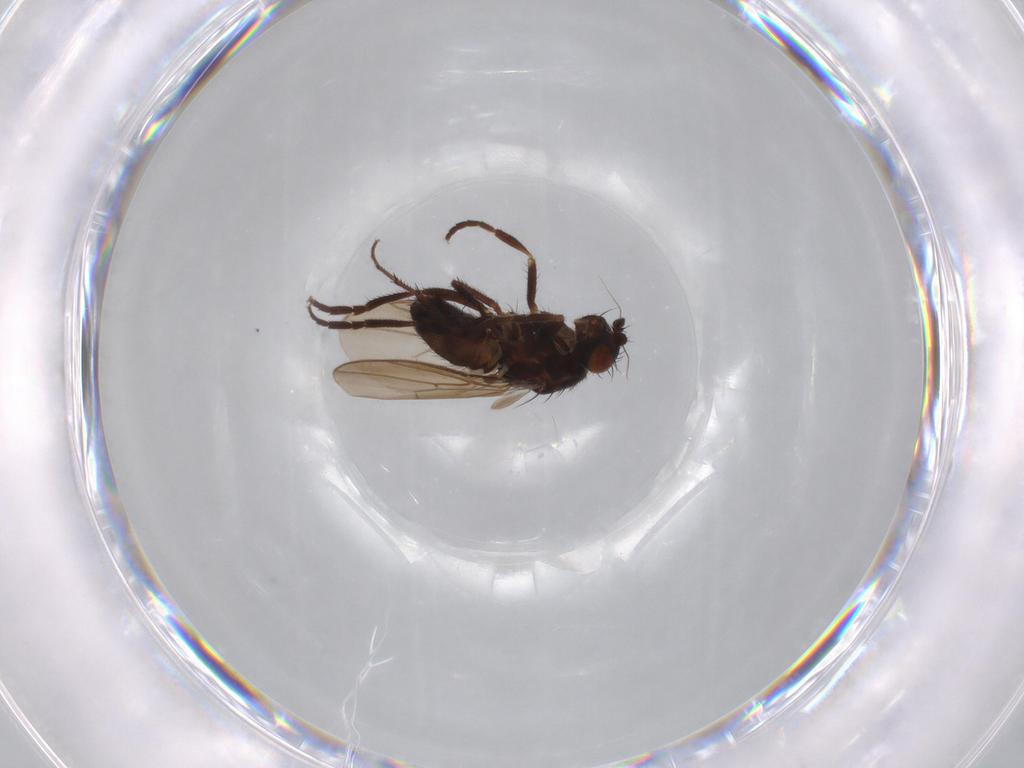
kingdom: Animalia
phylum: Arthropoda
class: Insecta
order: Diptera
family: Sphaeroceridae
